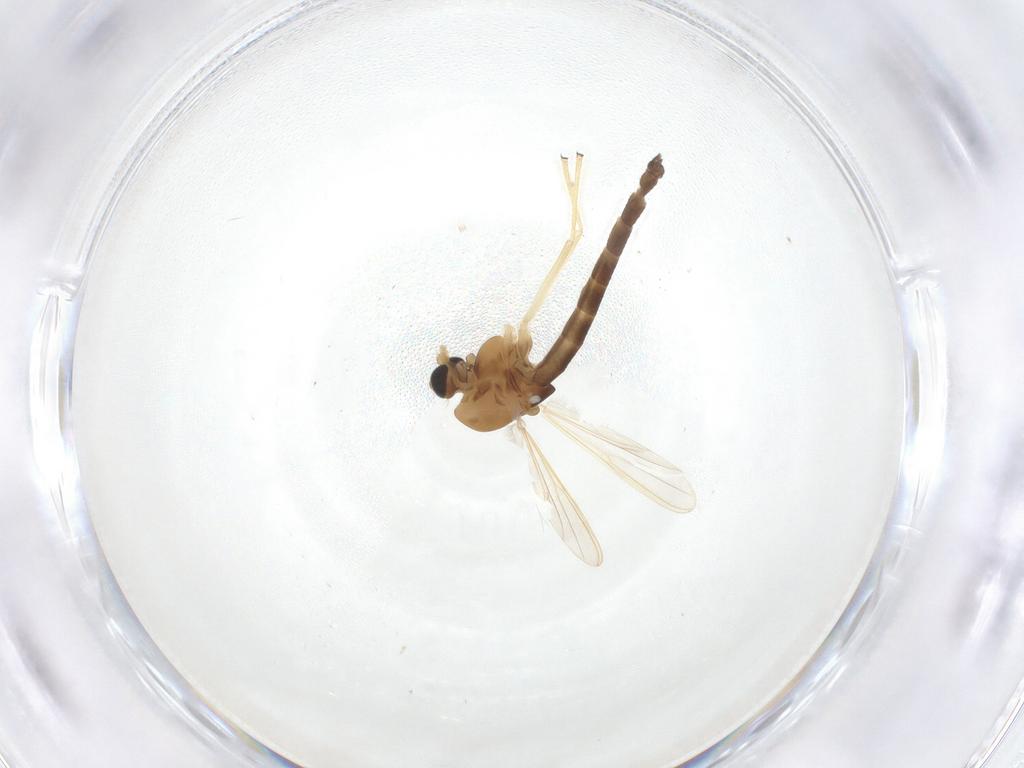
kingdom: Animalia
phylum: Arthropoda
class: Insecta
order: Diptera
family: Chironomidae
